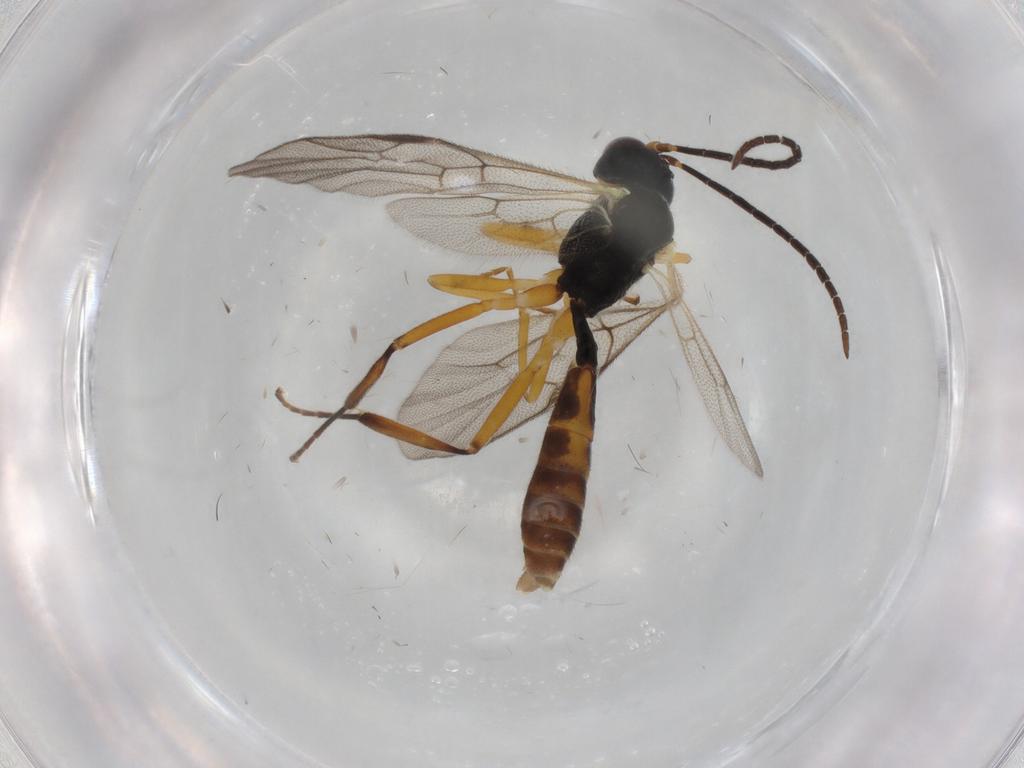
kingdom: Animalia
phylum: Arthropoda
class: Insecta
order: Hymenoptera
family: Ichneumonidae
